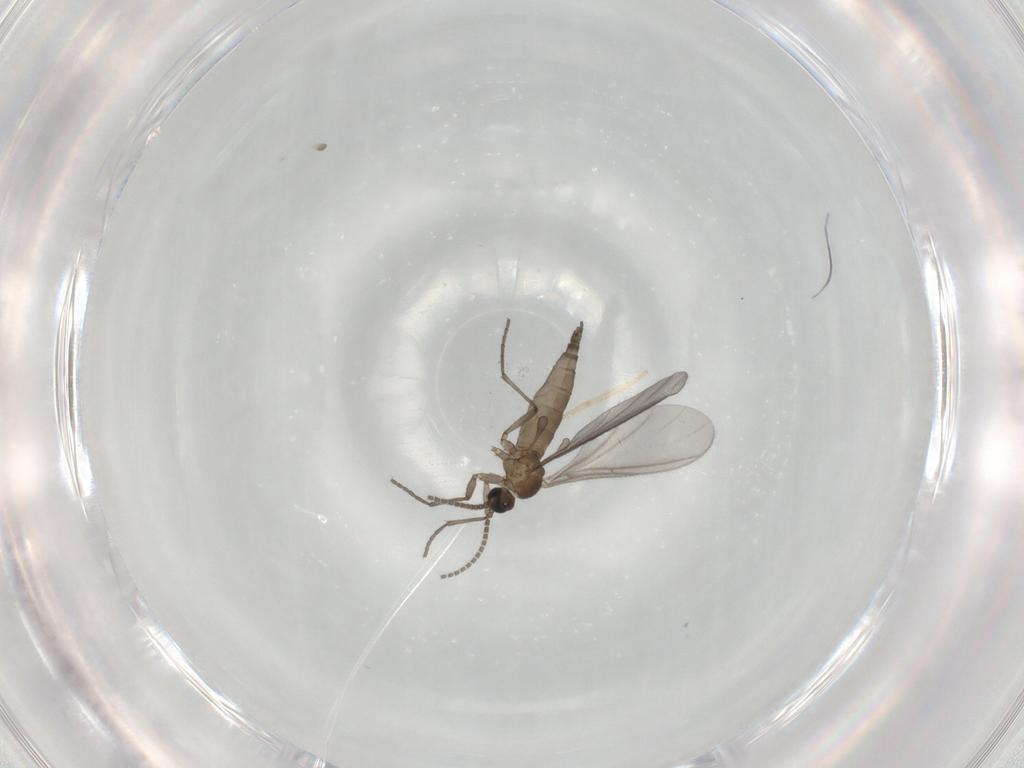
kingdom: Animalia
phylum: Arthropoda
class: Insecta
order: Diptera
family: Sciaridae
